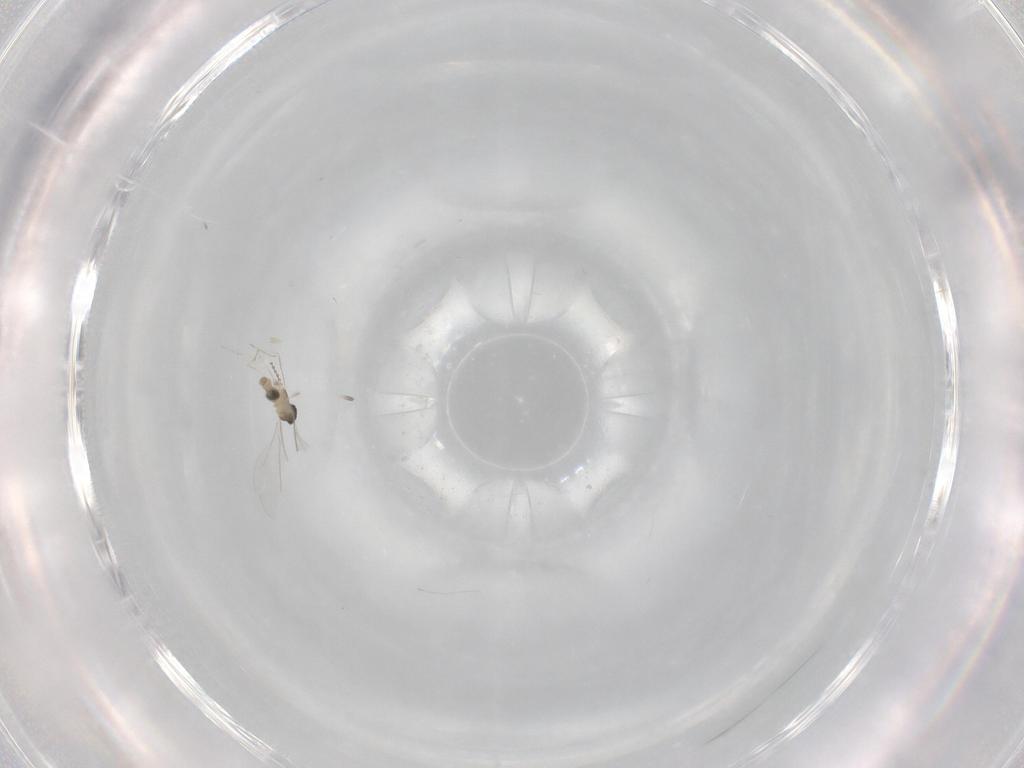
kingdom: Animalia
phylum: Arthropoda
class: Insecta
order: Diptera
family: Cecidomyiidae
